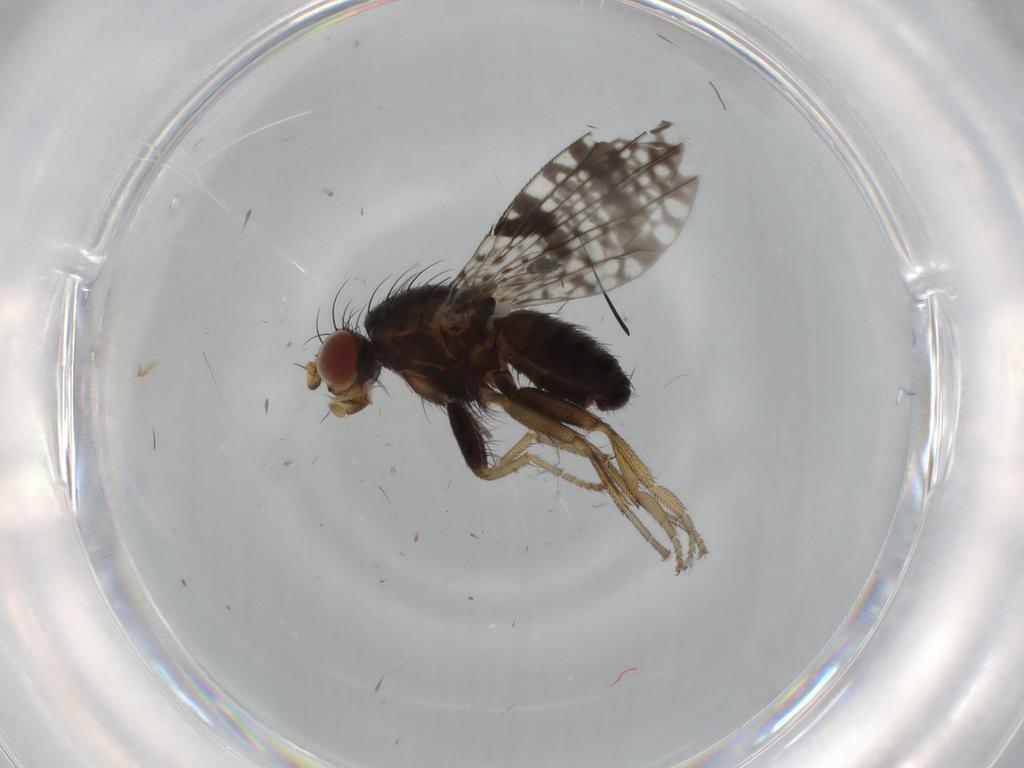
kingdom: Animalia
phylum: Arthropoda
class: Insecta
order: Diptera
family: Tephritidae
